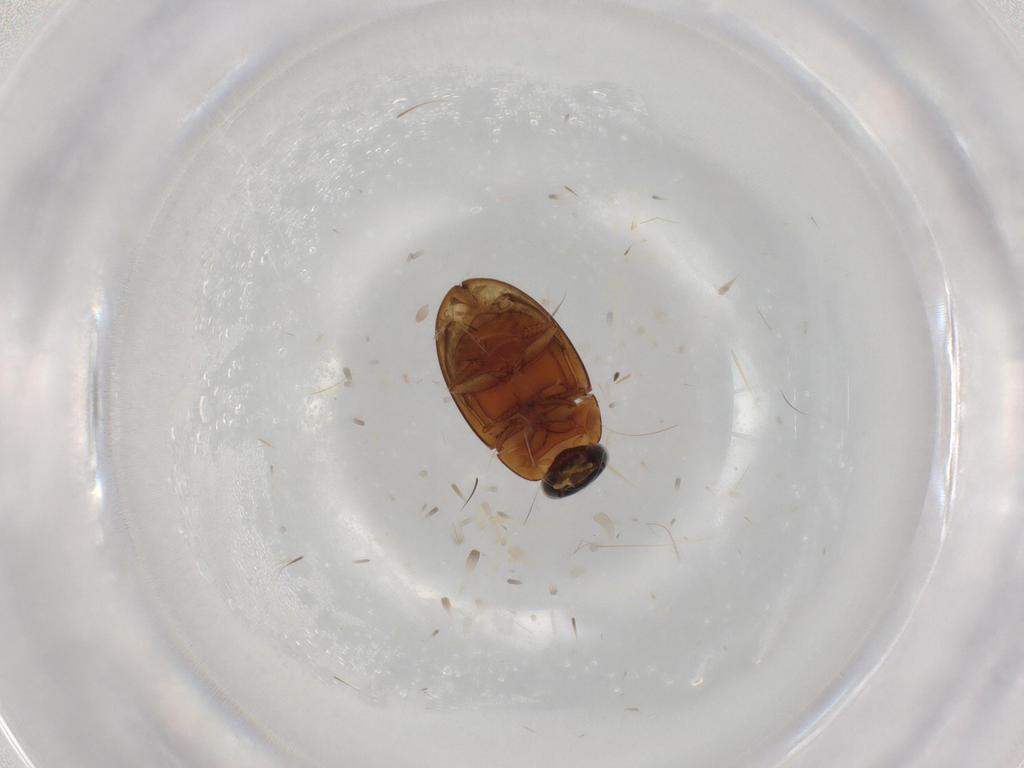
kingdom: Animalia
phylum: Arthropoda
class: Insecta
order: Coleoptera
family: Hydrophilidae
